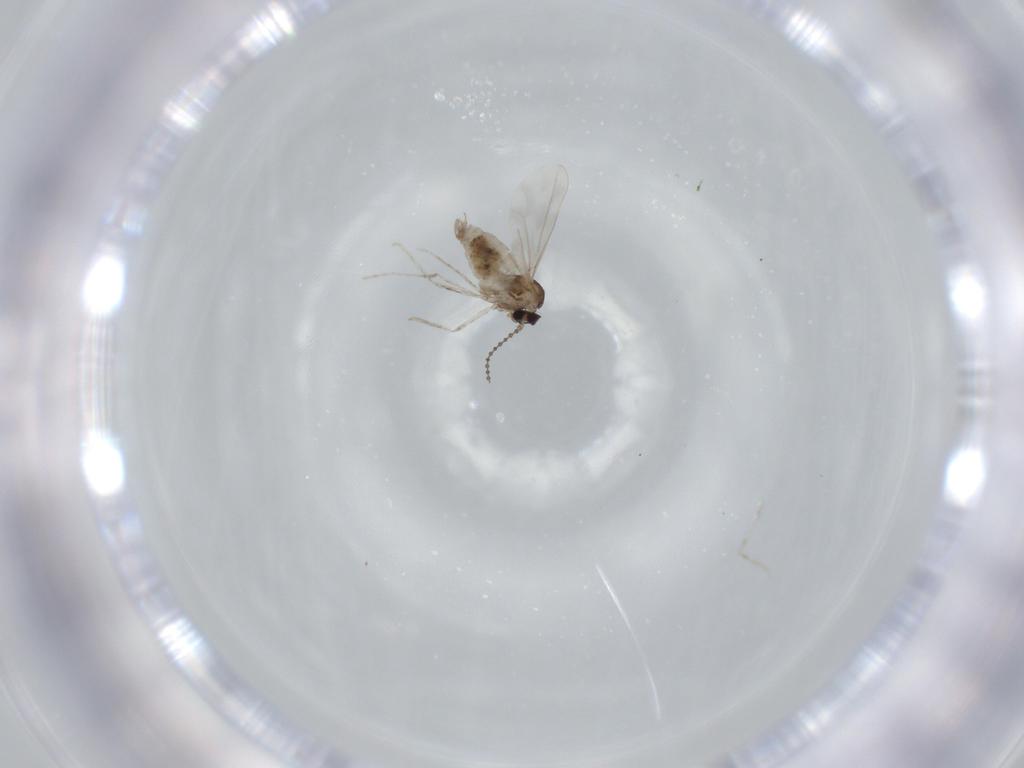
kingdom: Animalia
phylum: Arthropoda
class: Insecta
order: Diptera
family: Cecidomyiidae
